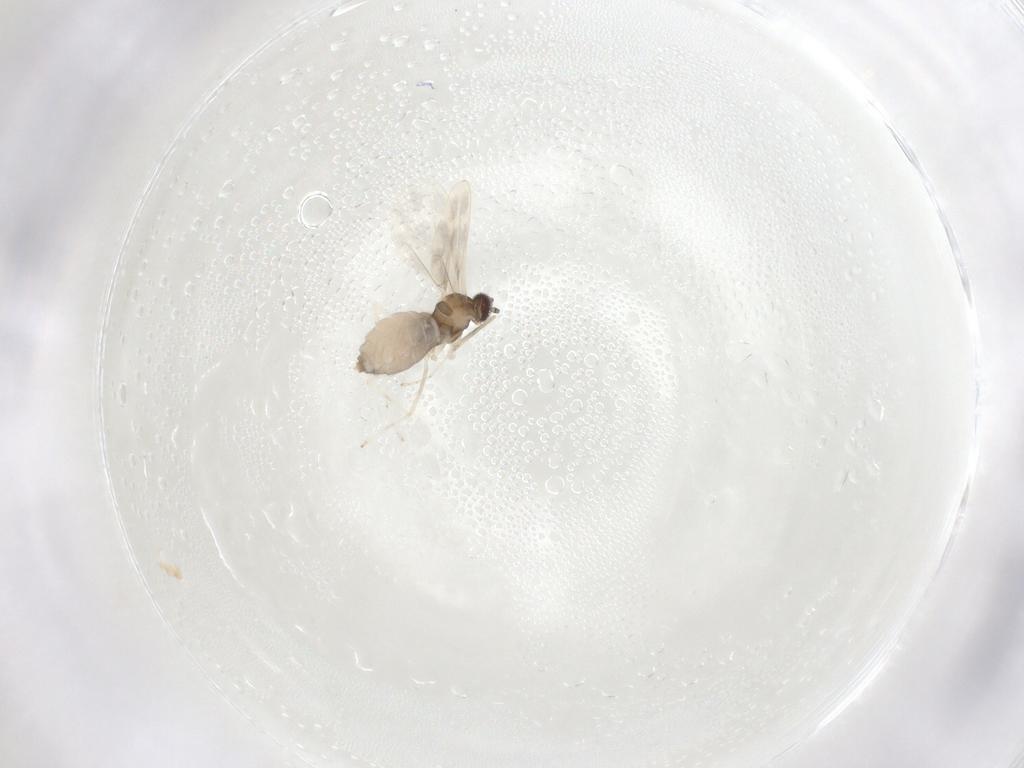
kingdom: Animalia
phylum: Arthropoda
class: Insecta
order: Diptera
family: Cecidomyiidae
